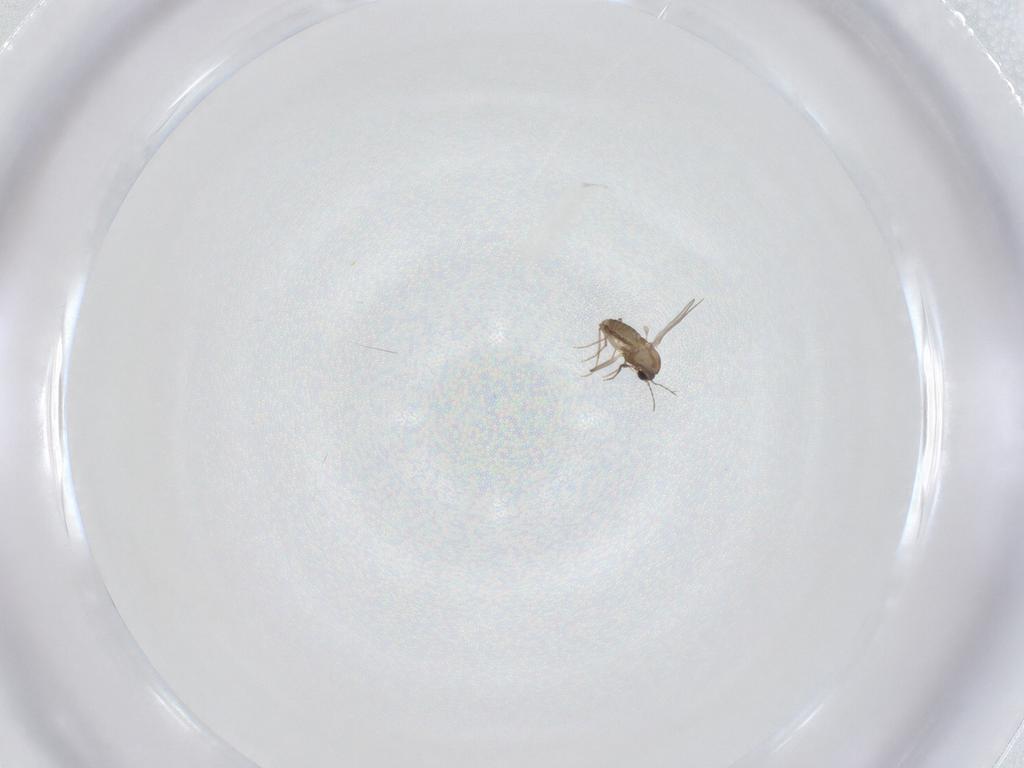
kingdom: Animalia
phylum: Arthropoda
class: Insecta
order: Diptera
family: Chironomidae
